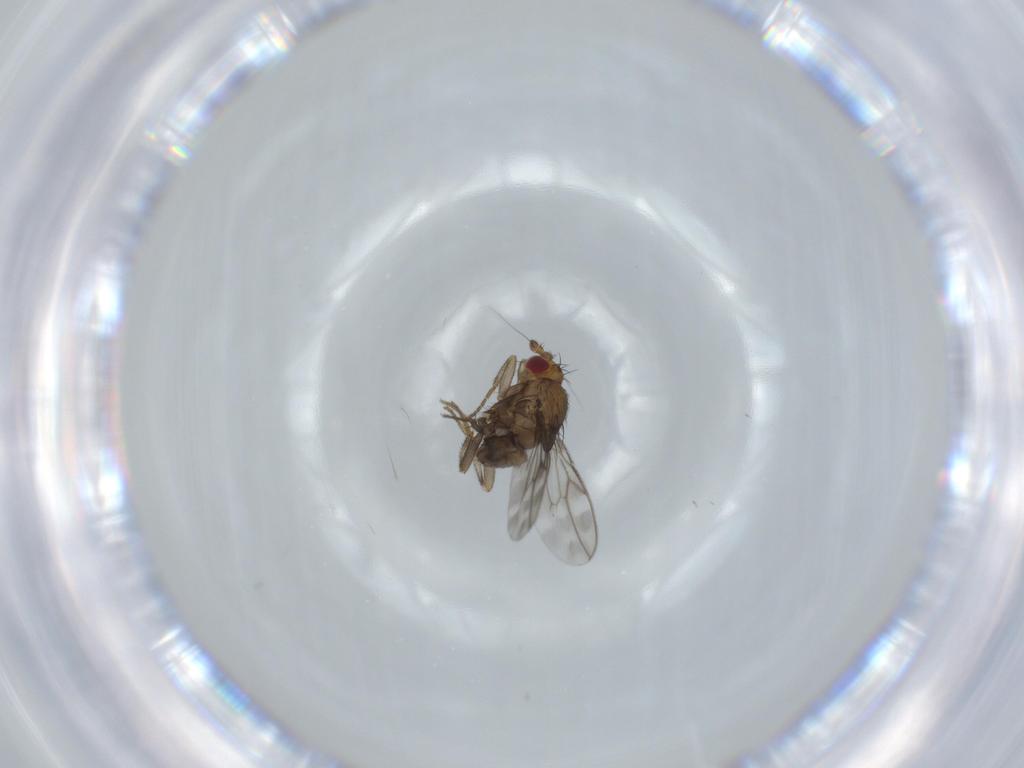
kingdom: Animalia
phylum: Arthropoda
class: Insecta
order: Diptera
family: Sphaeroceridae
